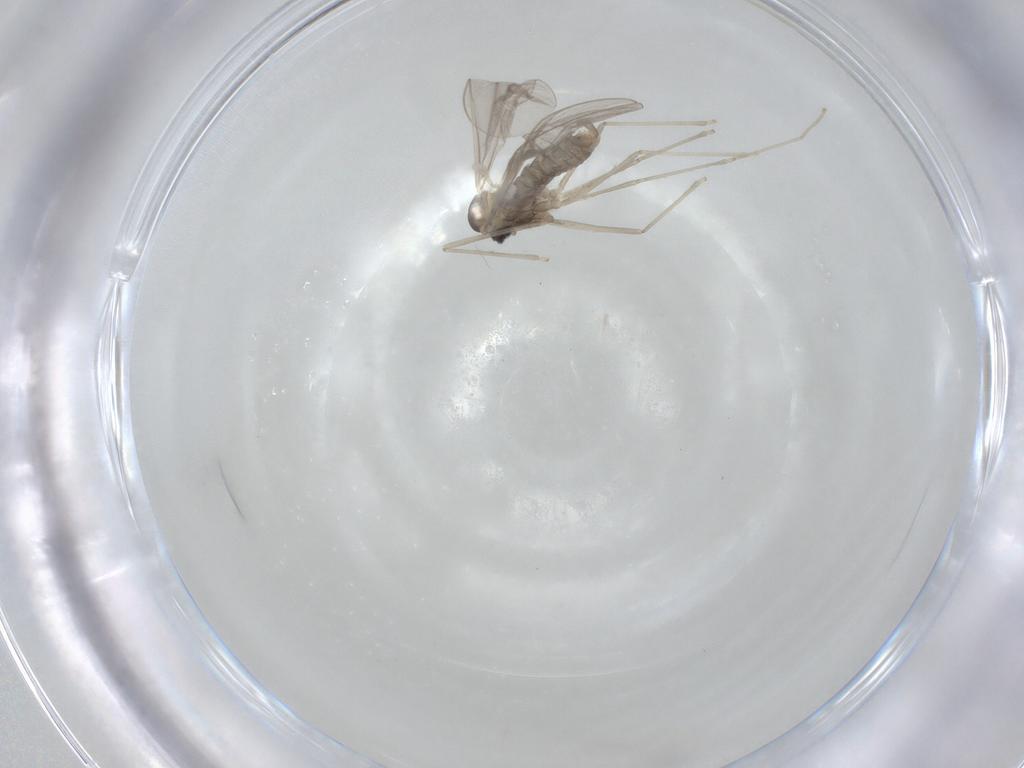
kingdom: Animalia
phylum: Arthropoda
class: Insecta
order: Diptera
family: Cecidomyiidae
